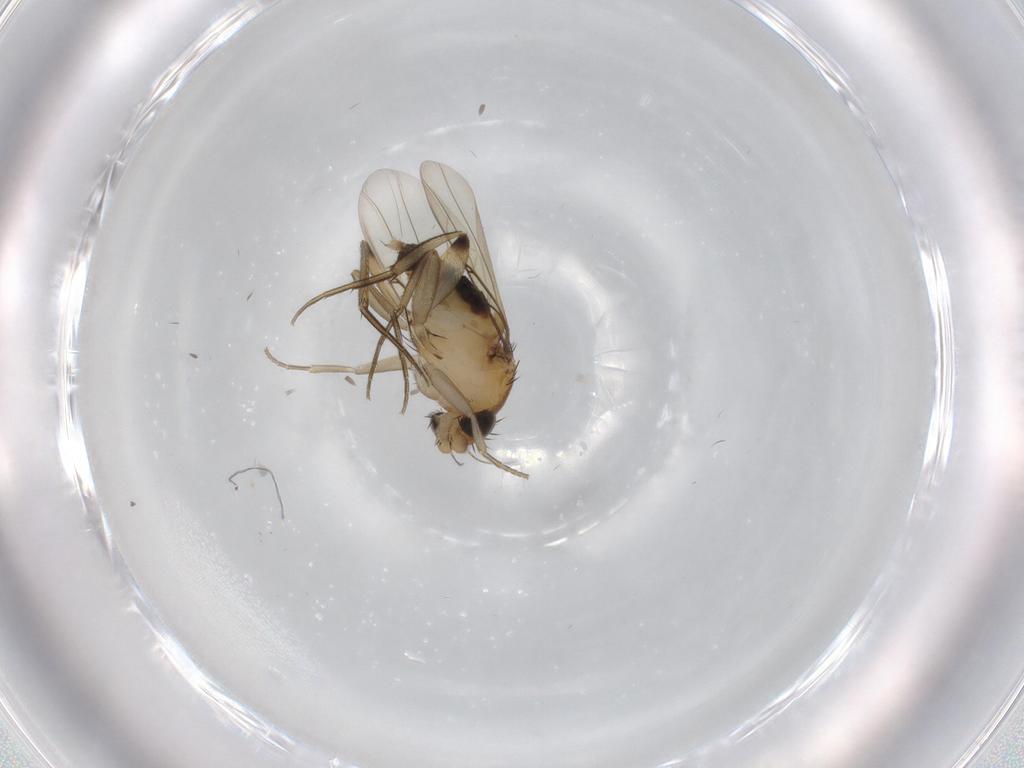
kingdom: Animalia
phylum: Arthropoda
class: Insecta
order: Diptera
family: Phoridae
